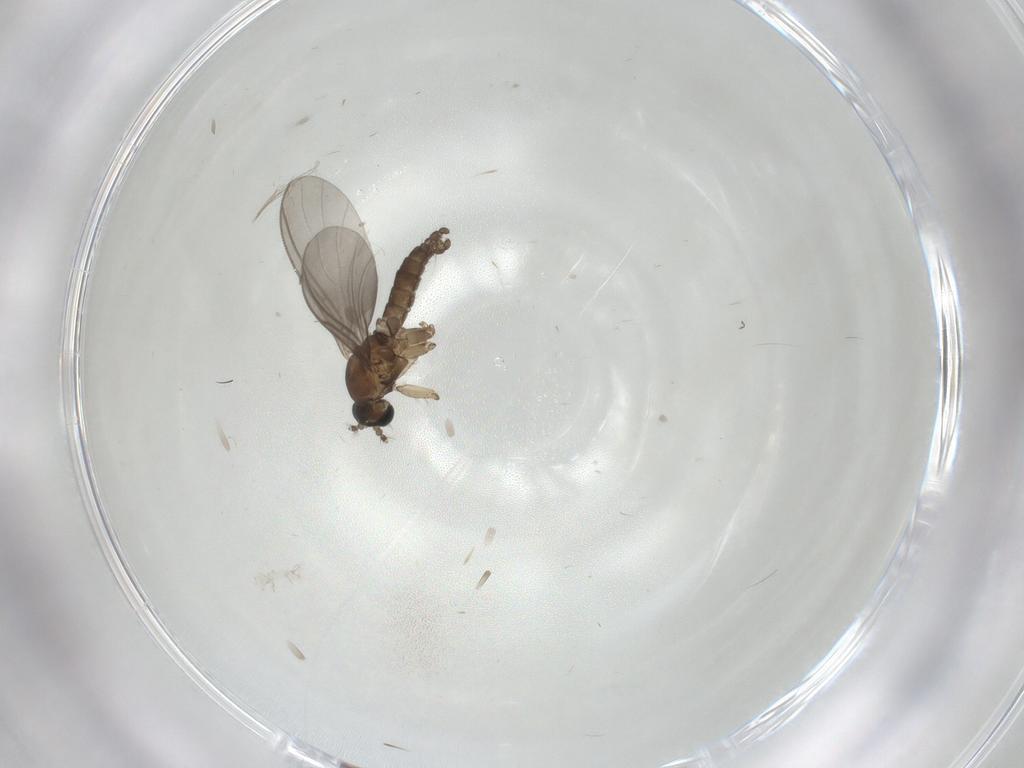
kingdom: Animalia
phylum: Arthropoda
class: Insecta
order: Diptera
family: Sciaridae
